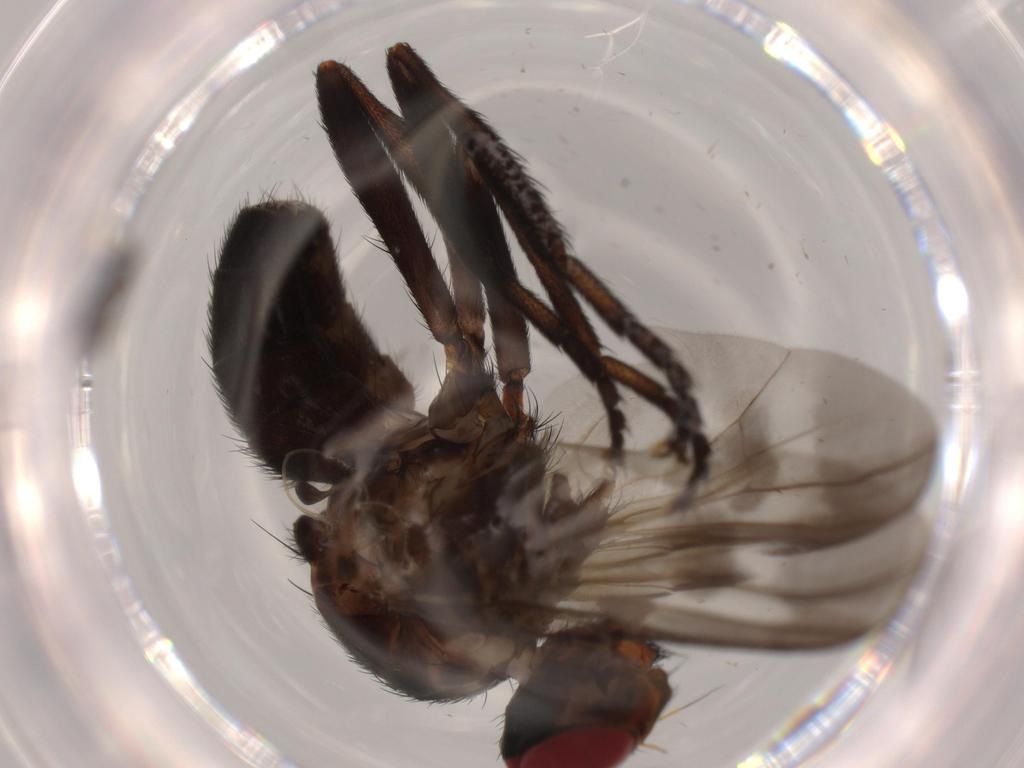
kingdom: Animalia
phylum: Arthropoda
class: Insecta
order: Diptera
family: Calliphoridae
